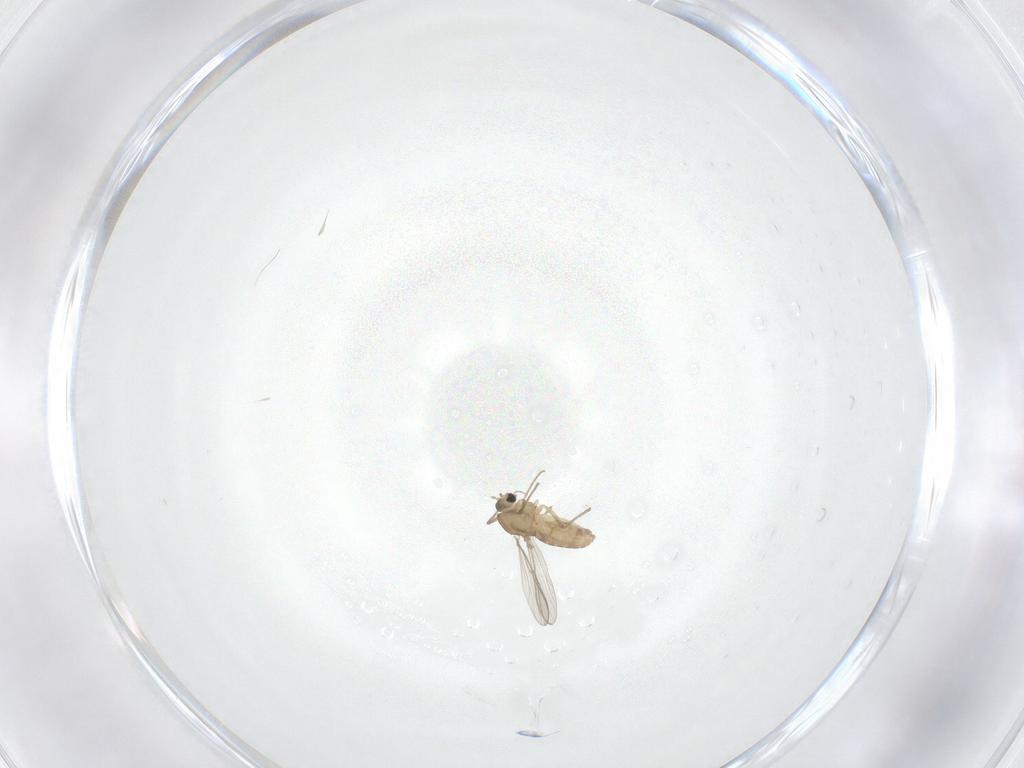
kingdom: Animalia
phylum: Arthropoda
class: Insecta
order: Diptera
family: Chironomidae
